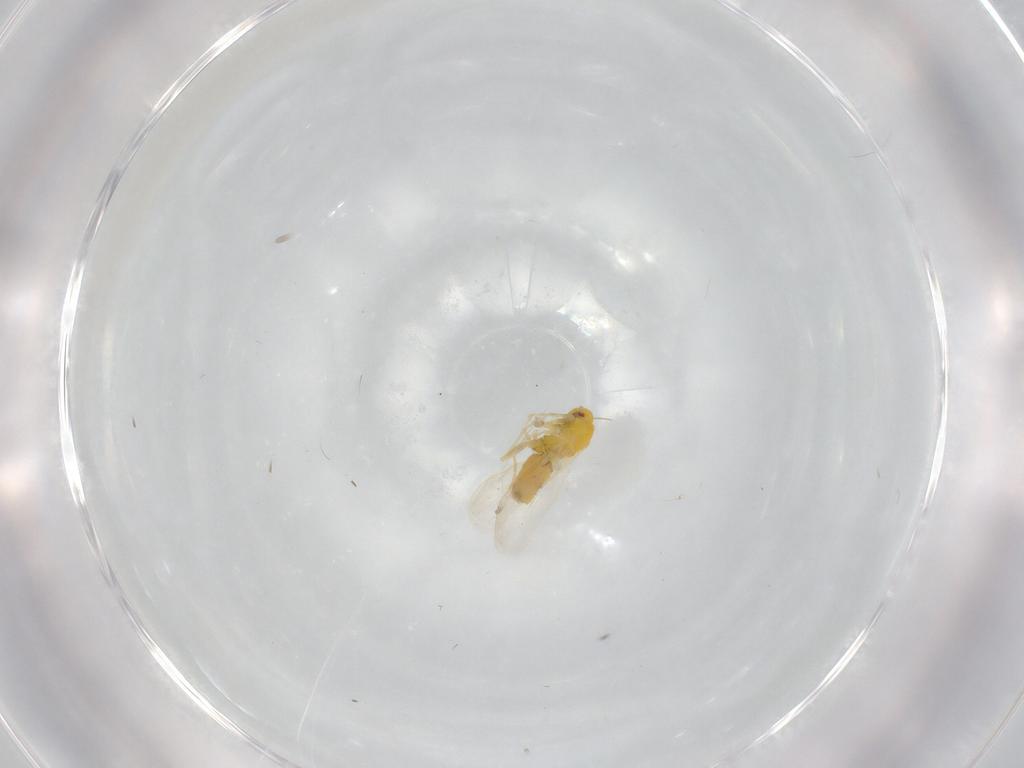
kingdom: Animalia
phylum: Arthropoda
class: Insecta
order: Hemiptera
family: Aleyrodidae
